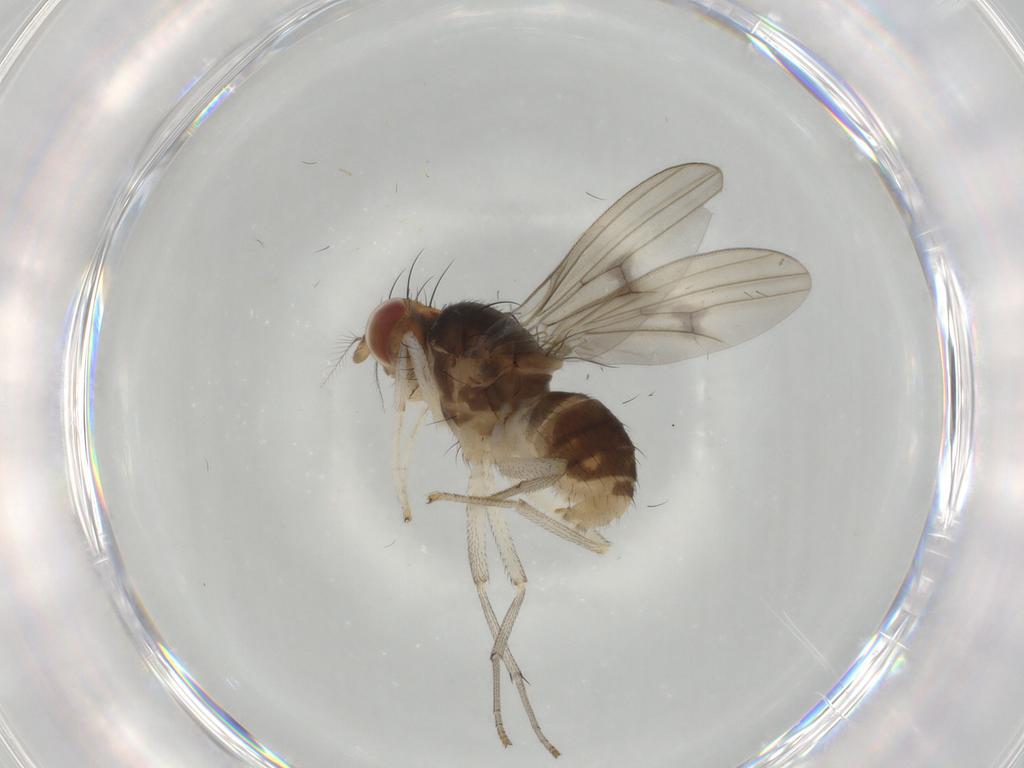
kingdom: Animalia
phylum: Arthropoda
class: Insecta
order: Diptera
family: Lauxaniidae
